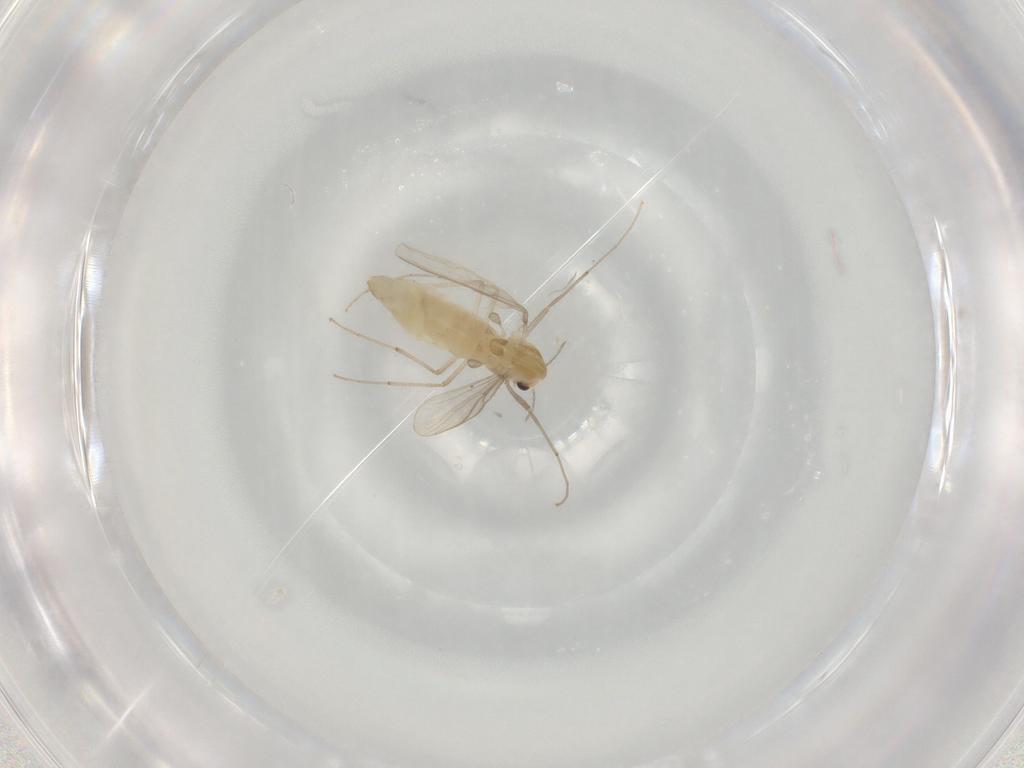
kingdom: Animalia
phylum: Arthropoda
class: Insecta
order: Diptera
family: Chironomidae
